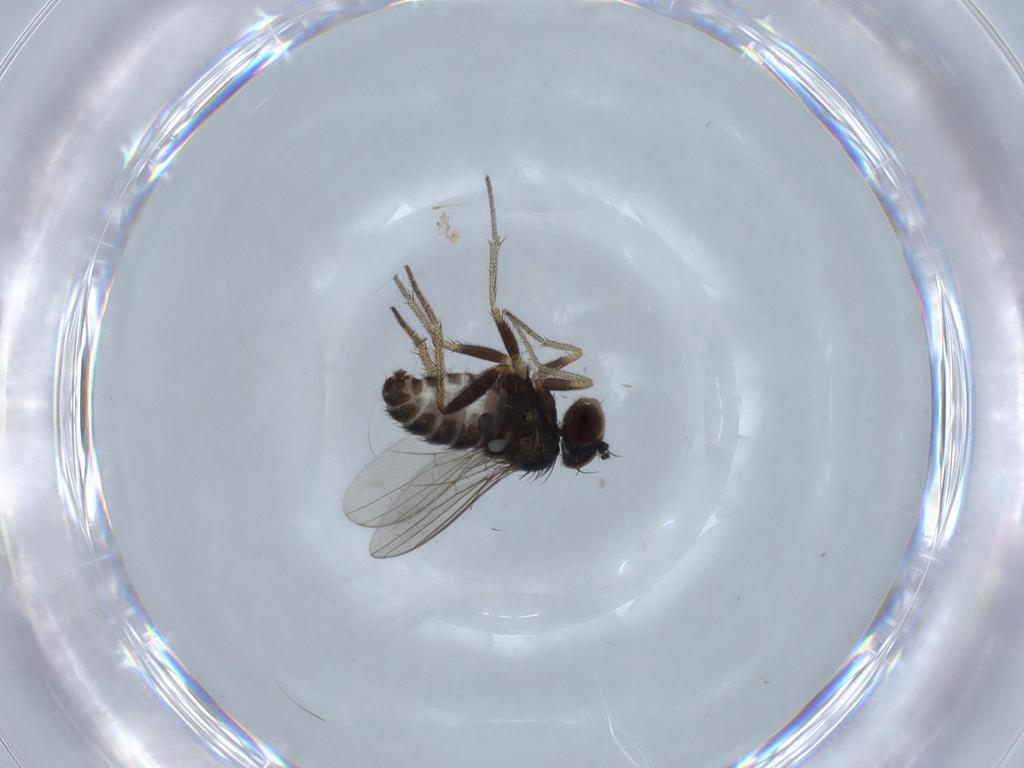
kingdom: Animalia
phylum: Arthropoda
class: Insecta
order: Diptera
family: Dolichopodidae
